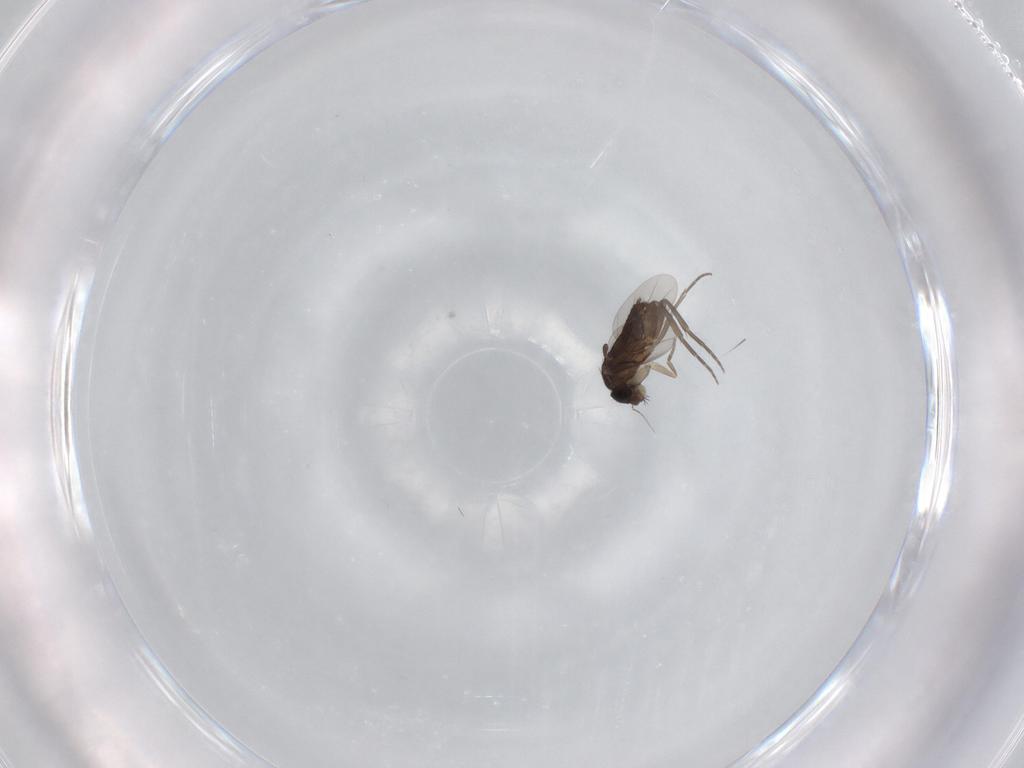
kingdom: Animalia
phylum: Arthropoda
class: Insecta
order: Diptera
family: Phoridae
